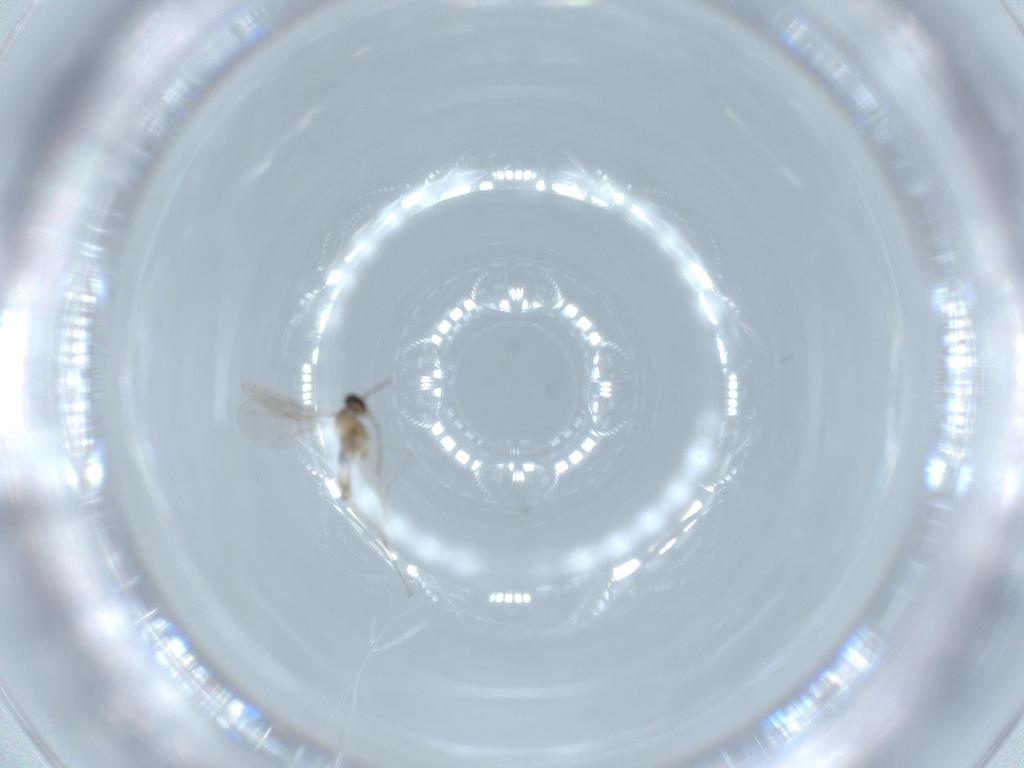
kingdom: Animalia
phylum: Arthropoda
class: Insecta
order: Diptera
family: Cecidomyiidae
